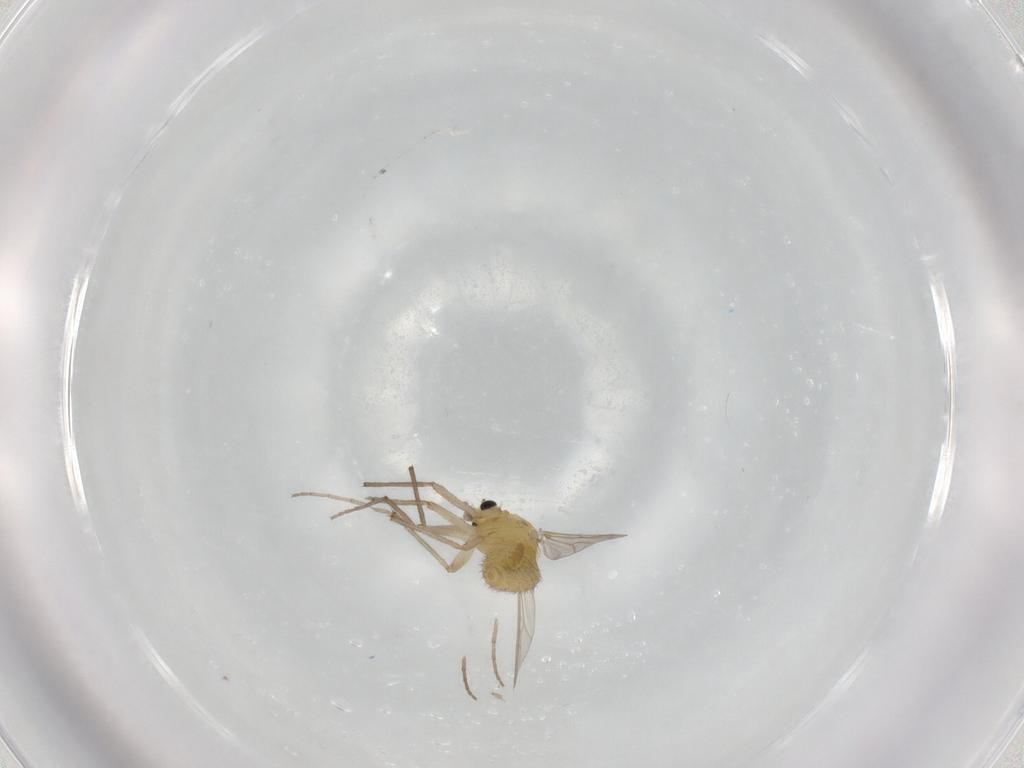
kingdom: Animalia
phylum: Arthropoda
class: Insecta
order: Diptera
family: Chironomidae
